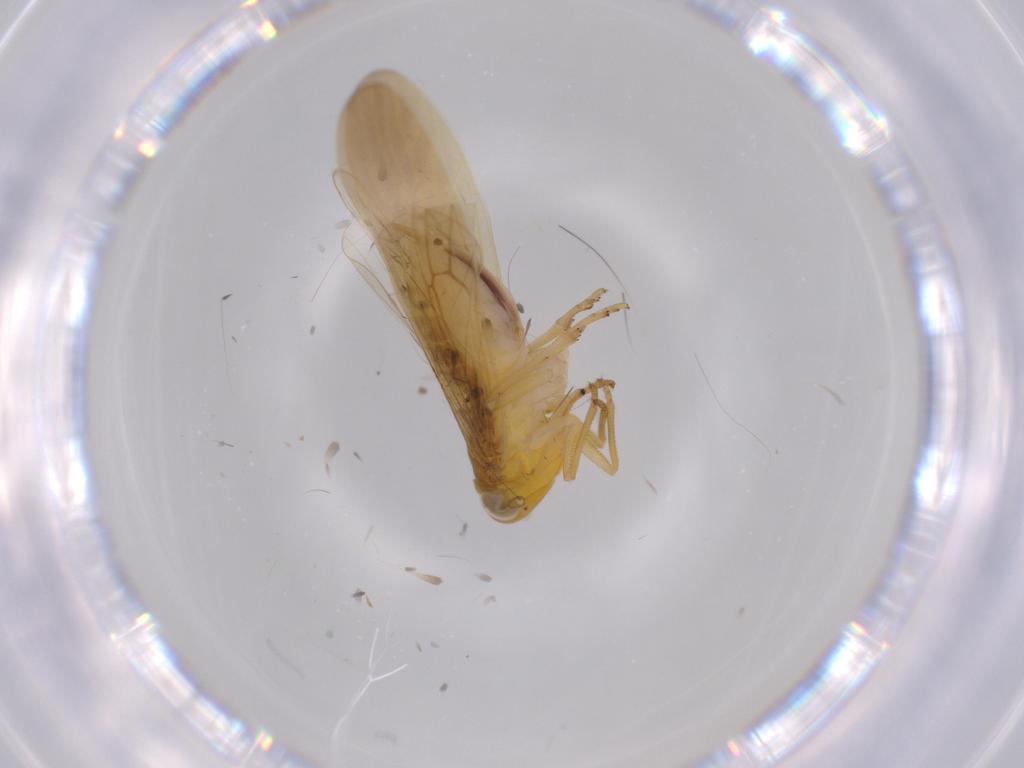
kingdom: Animalia
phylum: Arthropoda
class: Insecta
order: Hemiptera
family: Delphacidae
